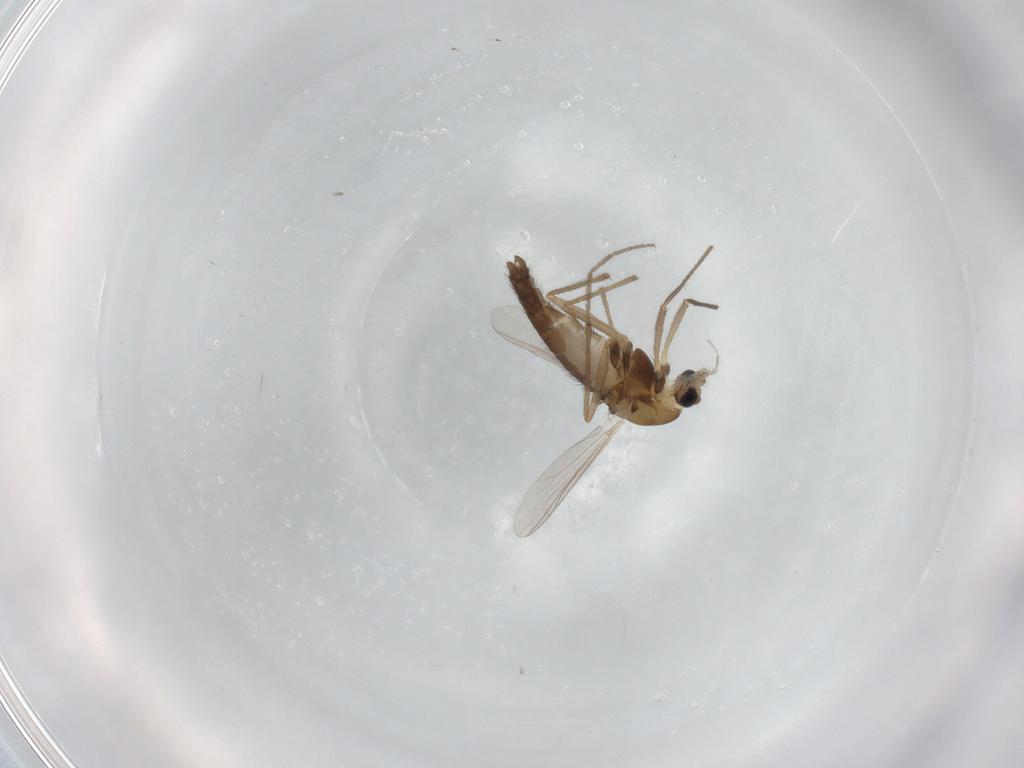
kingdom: Animalia
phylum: Arthropoda
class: Insecta
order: Diptera
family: Chironomidae
